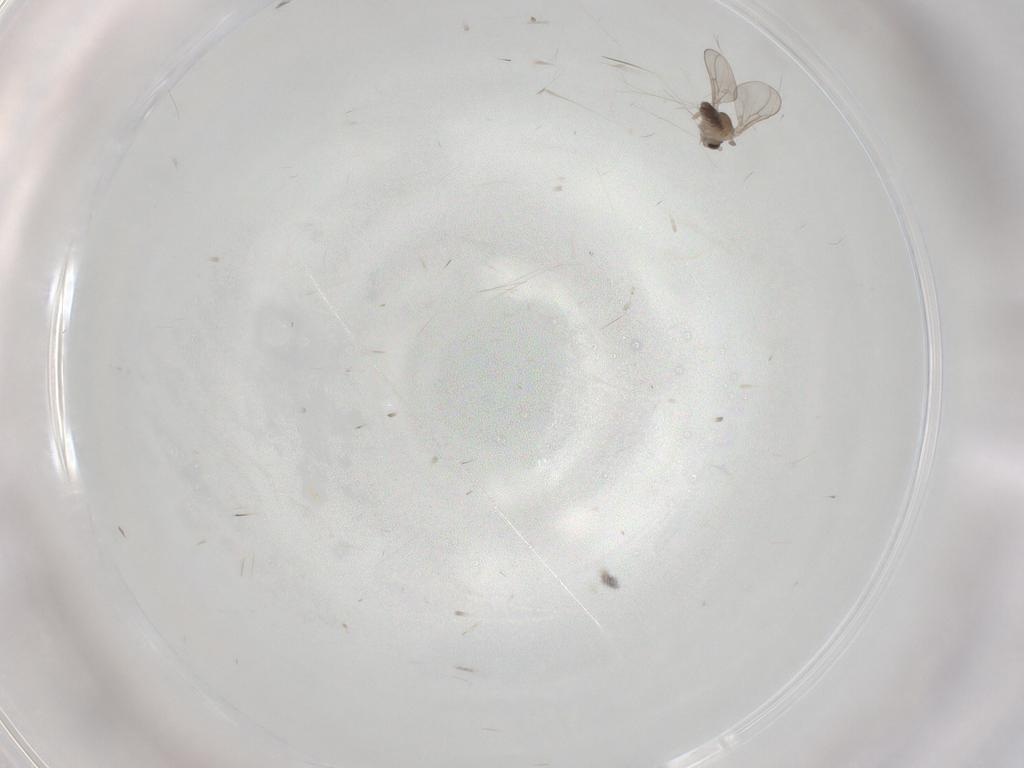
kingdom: Animalia
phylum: Arthropoda
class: Insecta
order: Diptera
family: Cecidomyiidae
